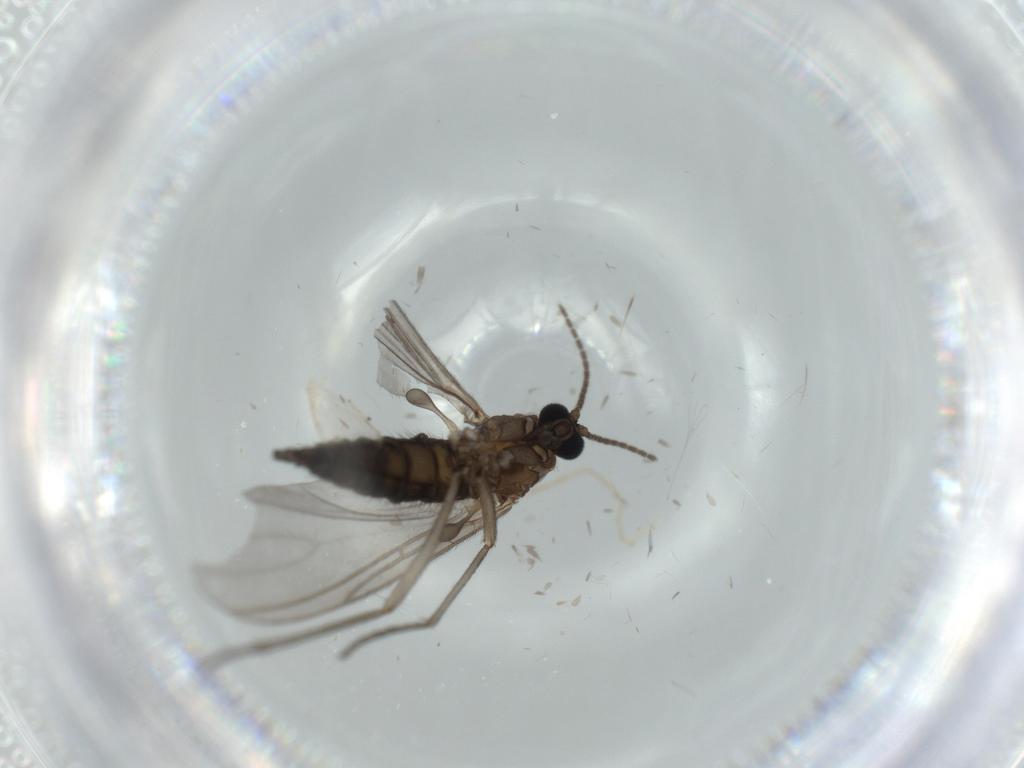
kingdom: Animalia
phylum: Arthropoda
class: Insecta
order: Diptera
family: Sciaridae
